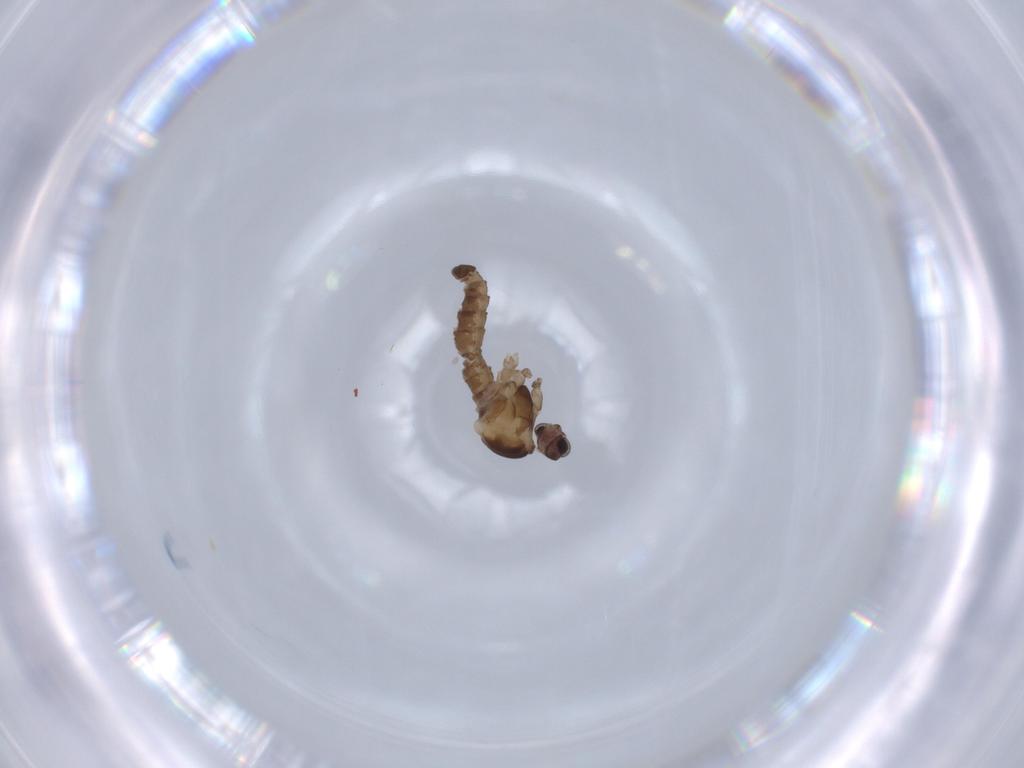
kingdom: Animalia
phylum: Arthropoda
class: Insecta
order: Diptera
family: Cecidomyiidae
